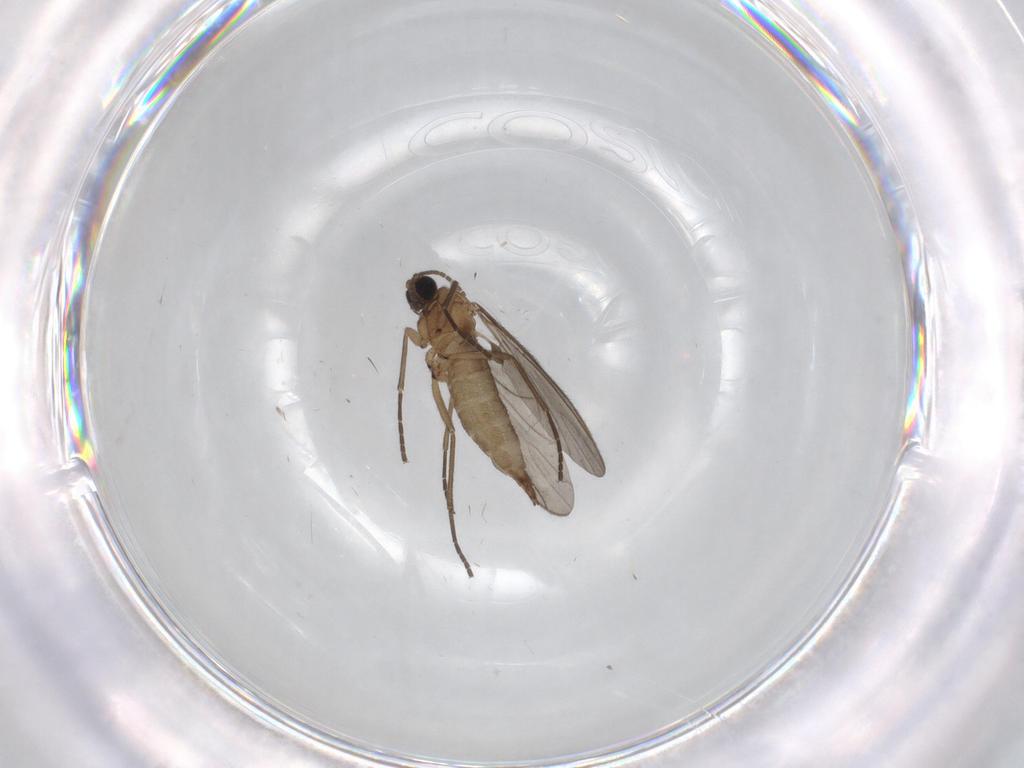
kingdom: Animalia
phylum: Arthropoda
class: Insecta
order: Diptera
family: Sciaridae
